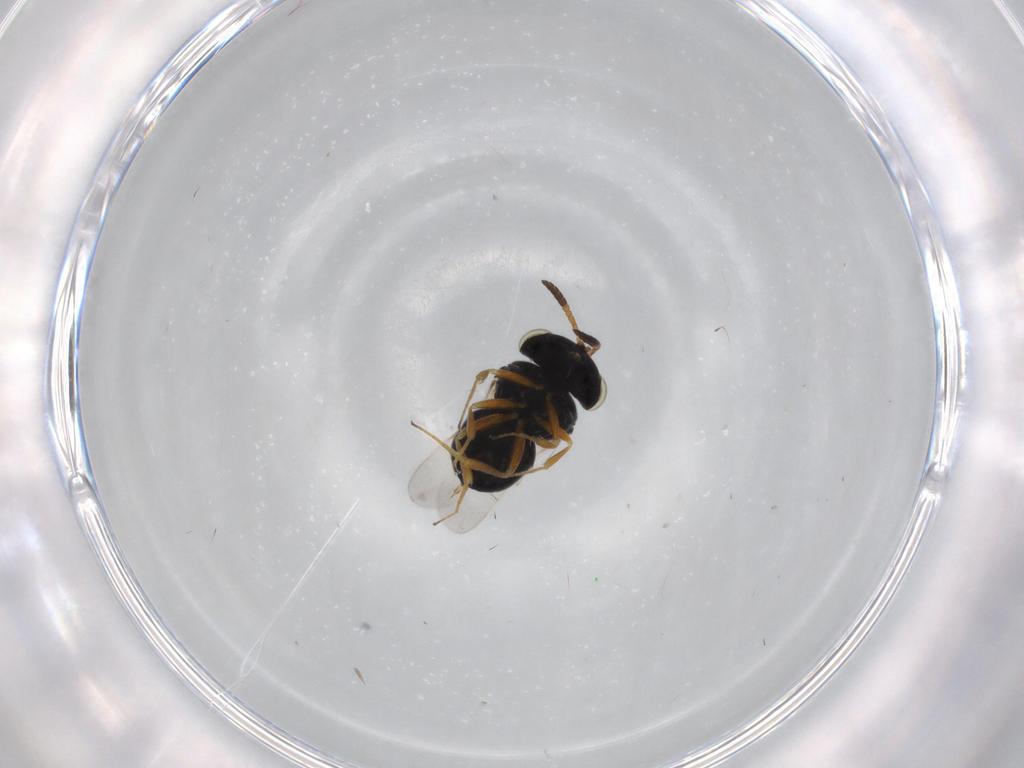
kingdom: Animalia
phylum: Arthropoda
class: Insecta
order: Hymenoptera
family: Scelionidae
